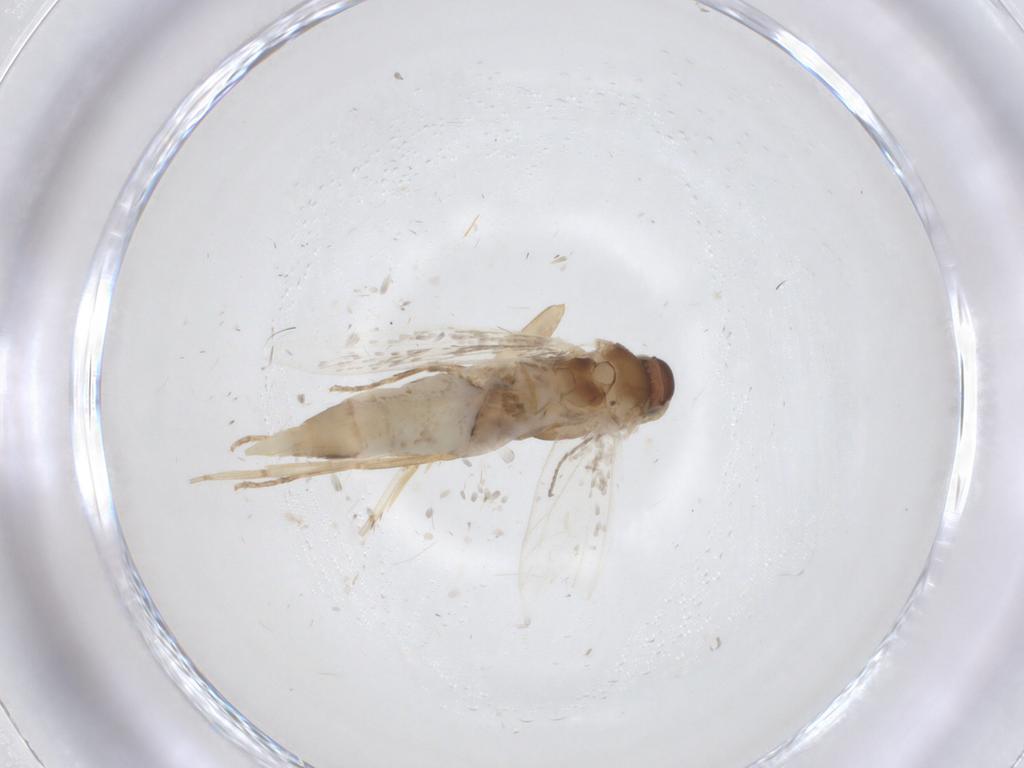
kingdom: Animalia
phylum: Arthropoda
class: Insecta
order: Lepidoptera
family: Glyphipterigidae
